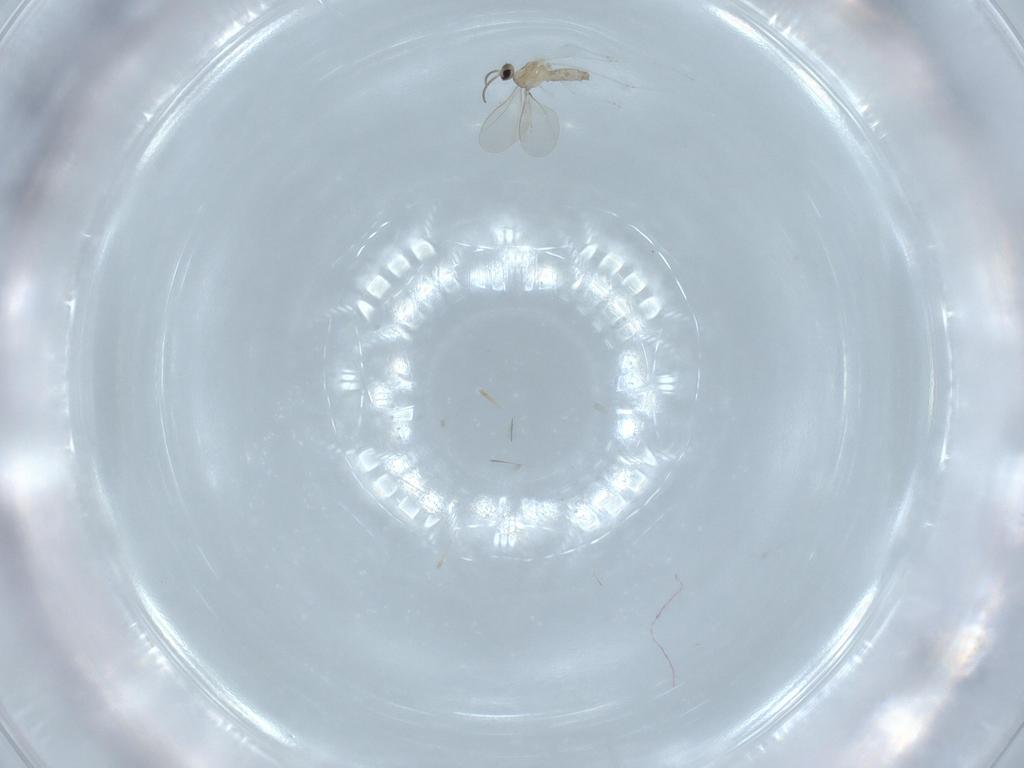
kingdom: Animalia
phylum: Arthropoda
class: Insecta
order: Diptera
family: Cecidomyiidae
